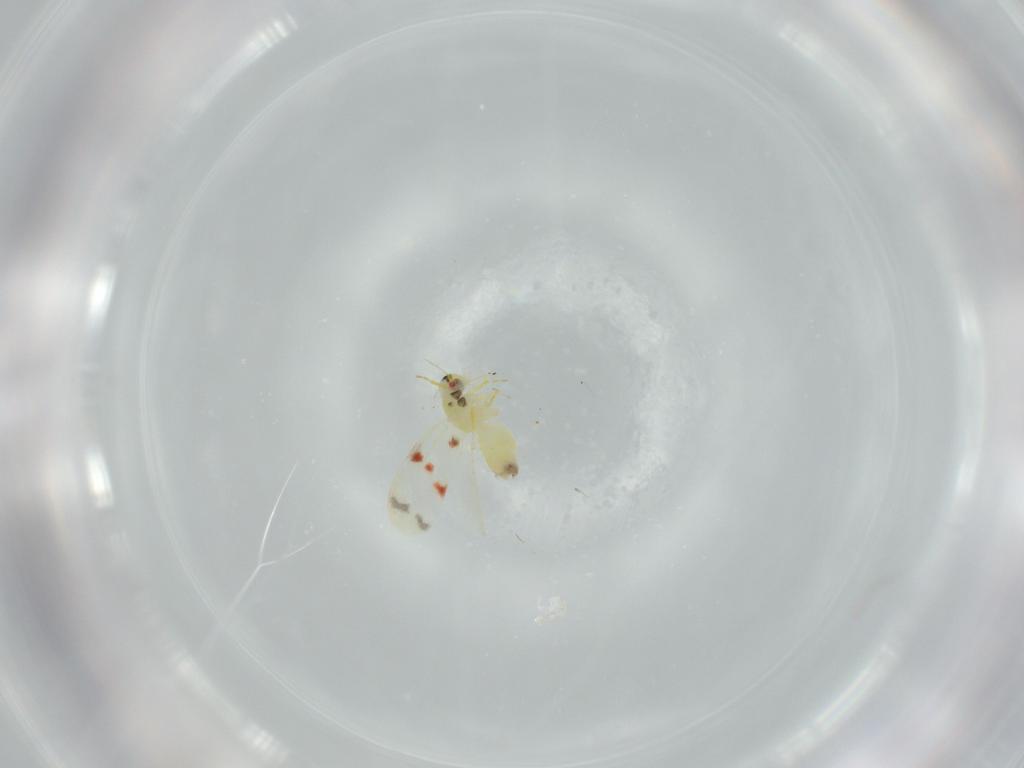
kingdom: Animalia
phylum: Arthropoda
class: Insecta
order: Hemiptera
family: Aleyrodidae
